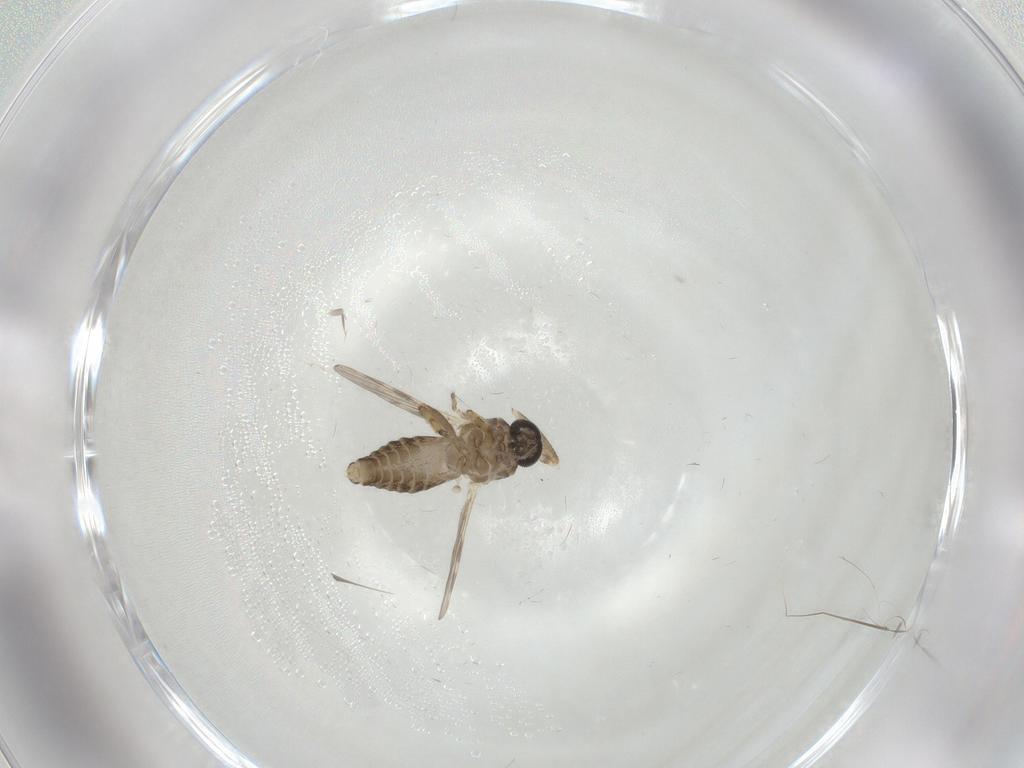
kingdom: Animalia
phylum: Arthropoda
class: Insecta
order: Diptera
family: Ceratopogonidae
